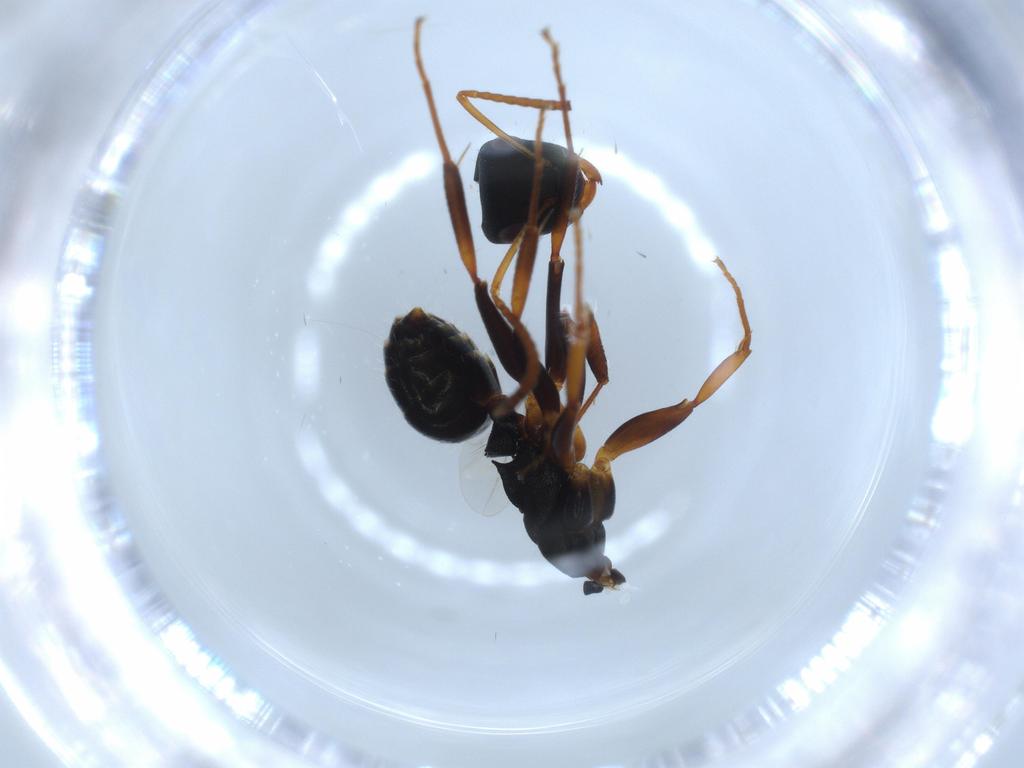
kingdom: Animalia
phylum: Arthropoda
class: Insecta
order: Hymenoptera
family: Formicidae
